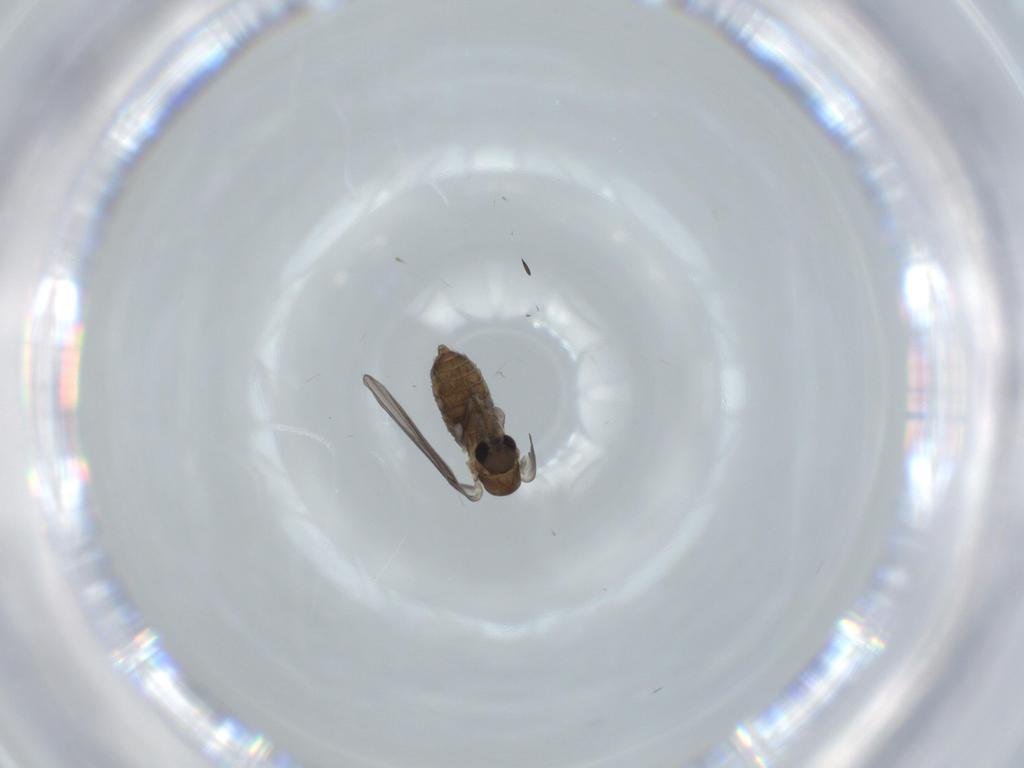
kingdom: Animalia
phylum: Arthropoda
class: Insecta
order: Diptera
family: Psychodidae
